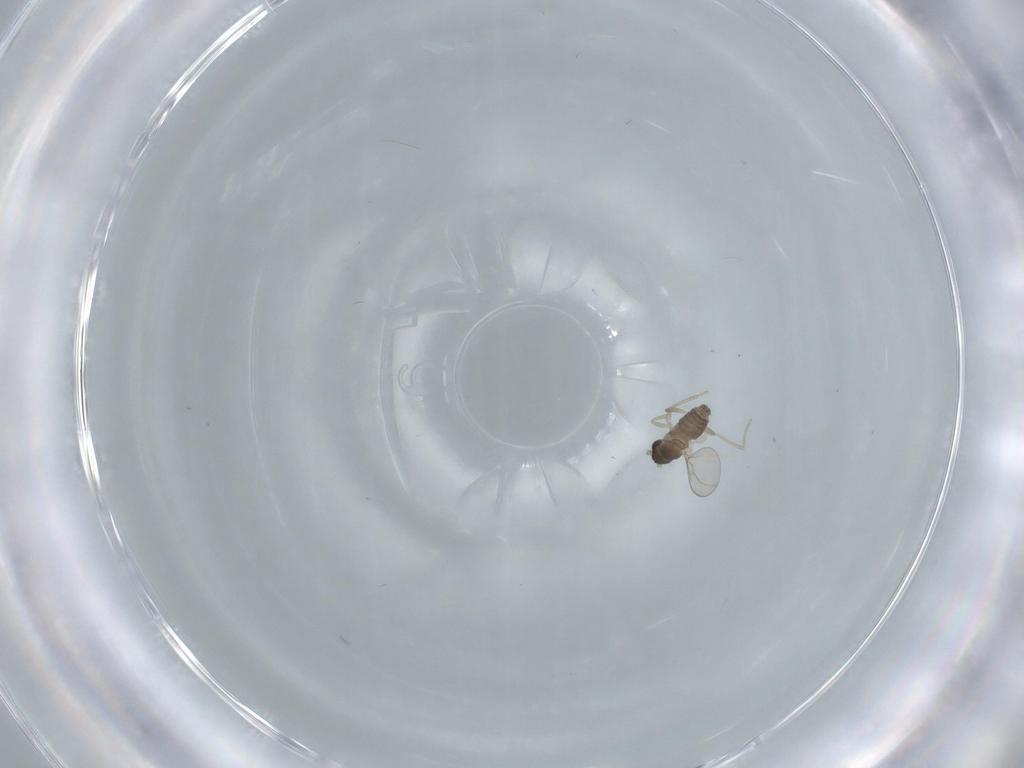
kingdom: Animalia
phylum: Arthropoda
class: Insecta
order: Diptera
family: Cecidomyiidae
